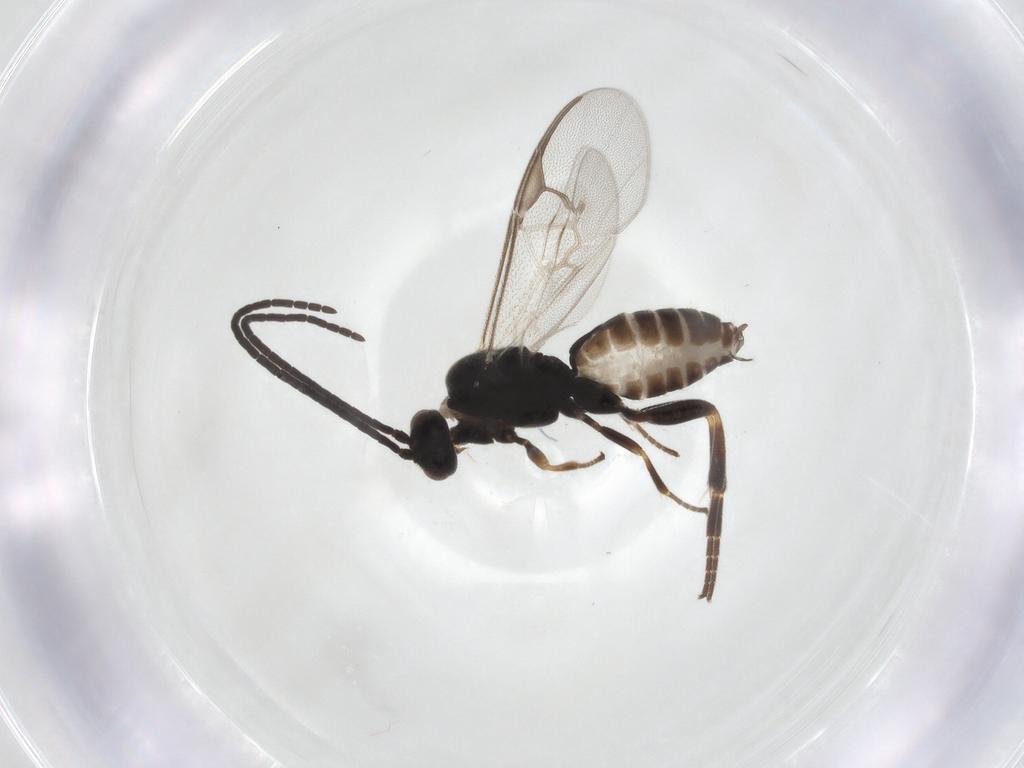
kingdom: Animalia
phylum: Arthropoda
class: Insecta
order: Hymenoptera
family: Braconidae
